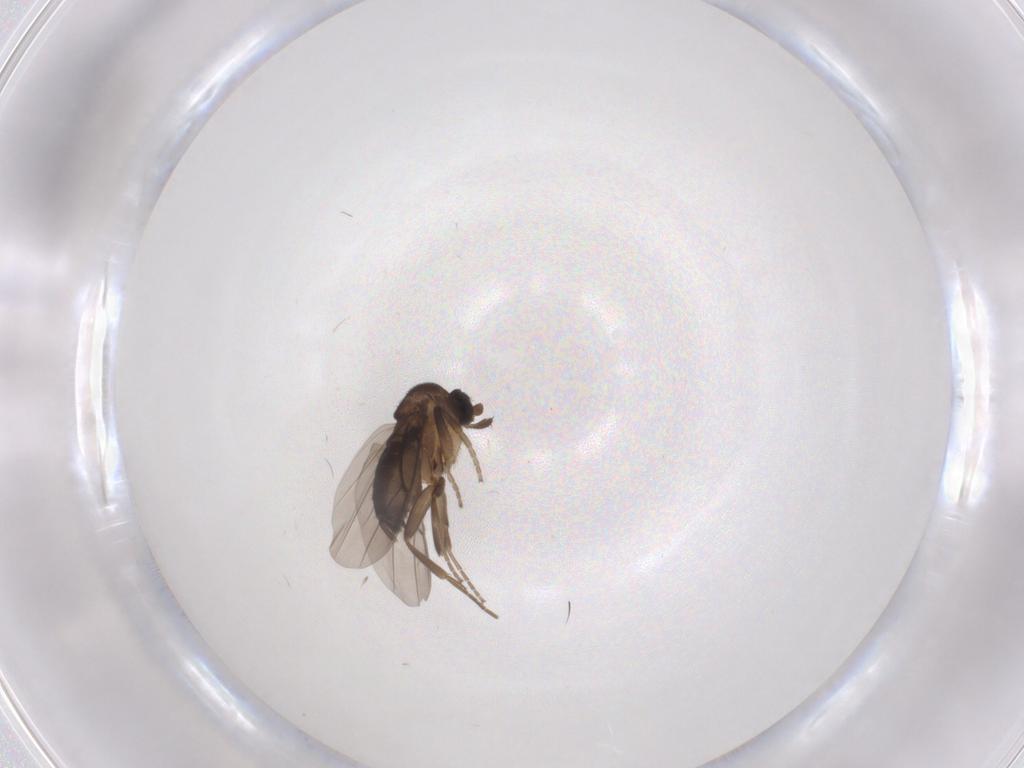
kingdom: Animalia
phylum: Arthropoda
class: Insecta
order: Diptera
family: Phoridae
